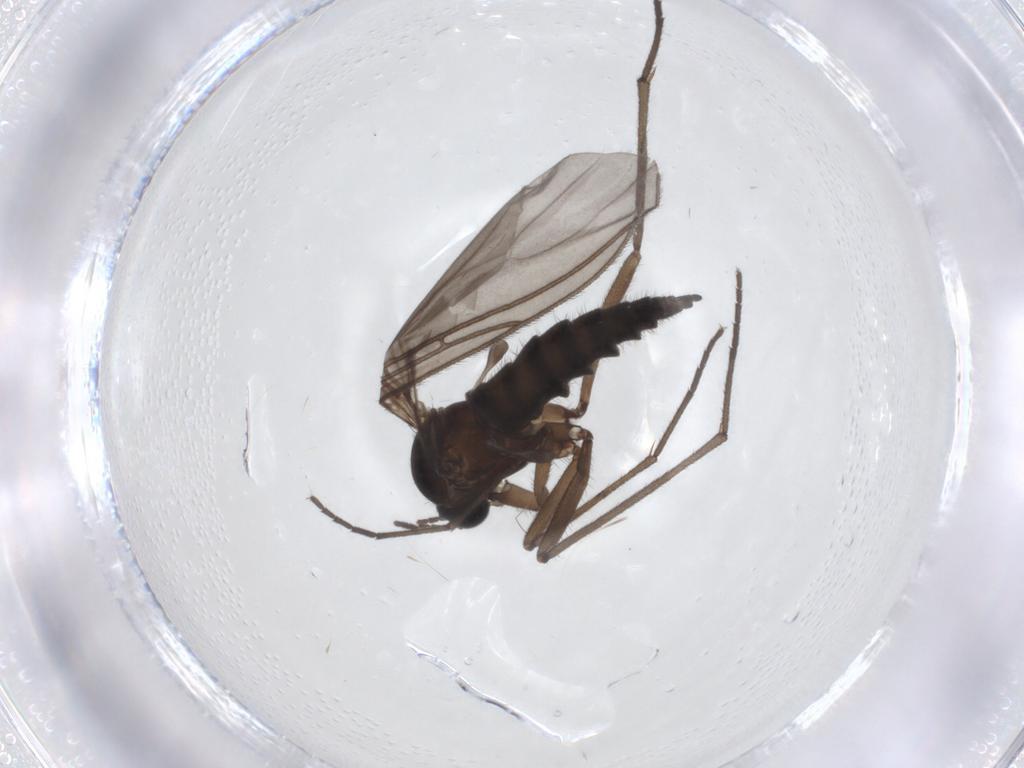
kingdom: Animalia
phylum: Arthropoda
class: Insecta
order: Diptera
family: Sciaridae
